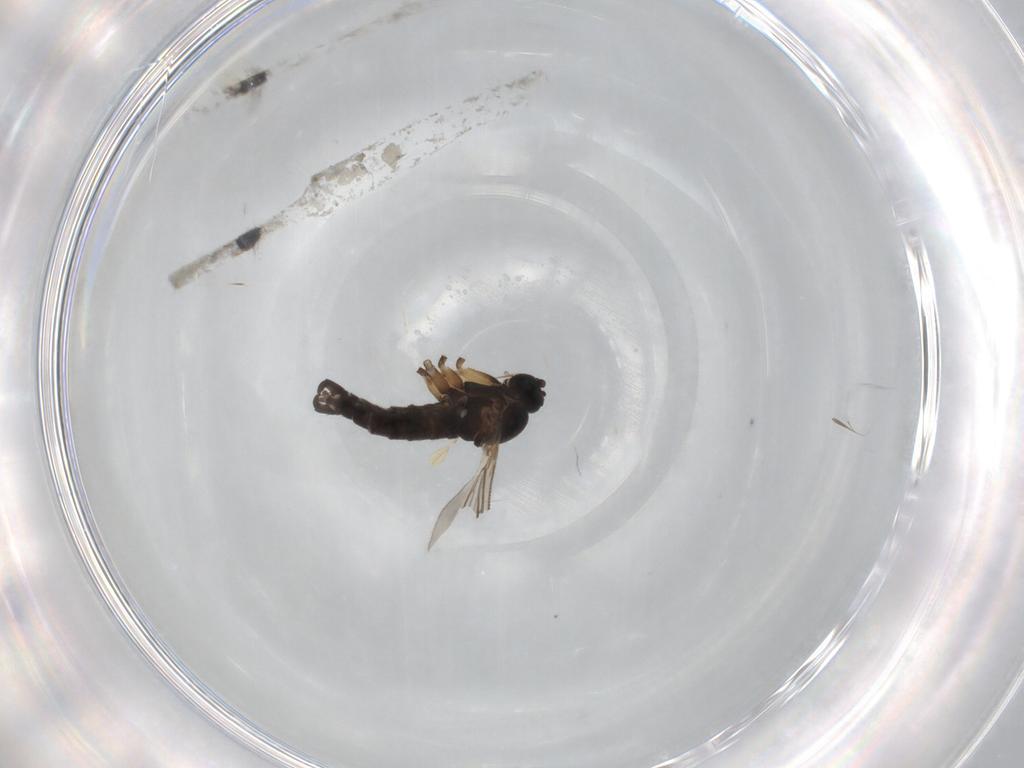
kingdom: Animalia
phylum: Arthropoda
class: Insecta
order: Diptera
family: Sciaridae
